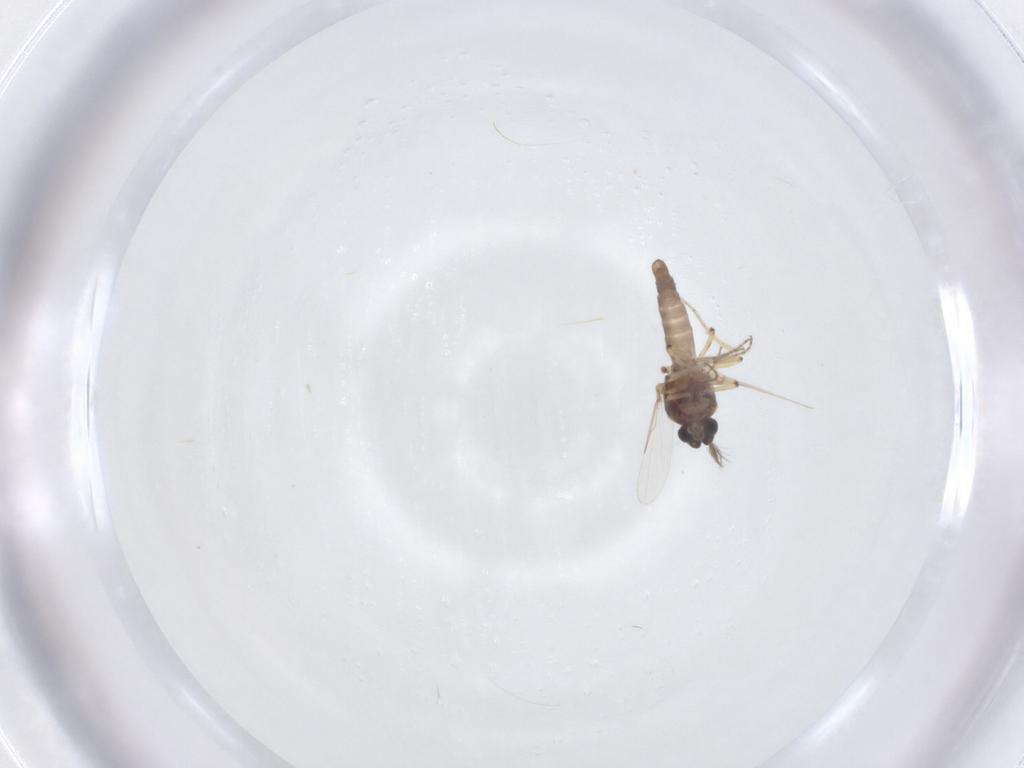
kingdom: Animalia
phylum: Arthropoda
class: Insecta
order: Diptera
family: Ceratopogonidae
